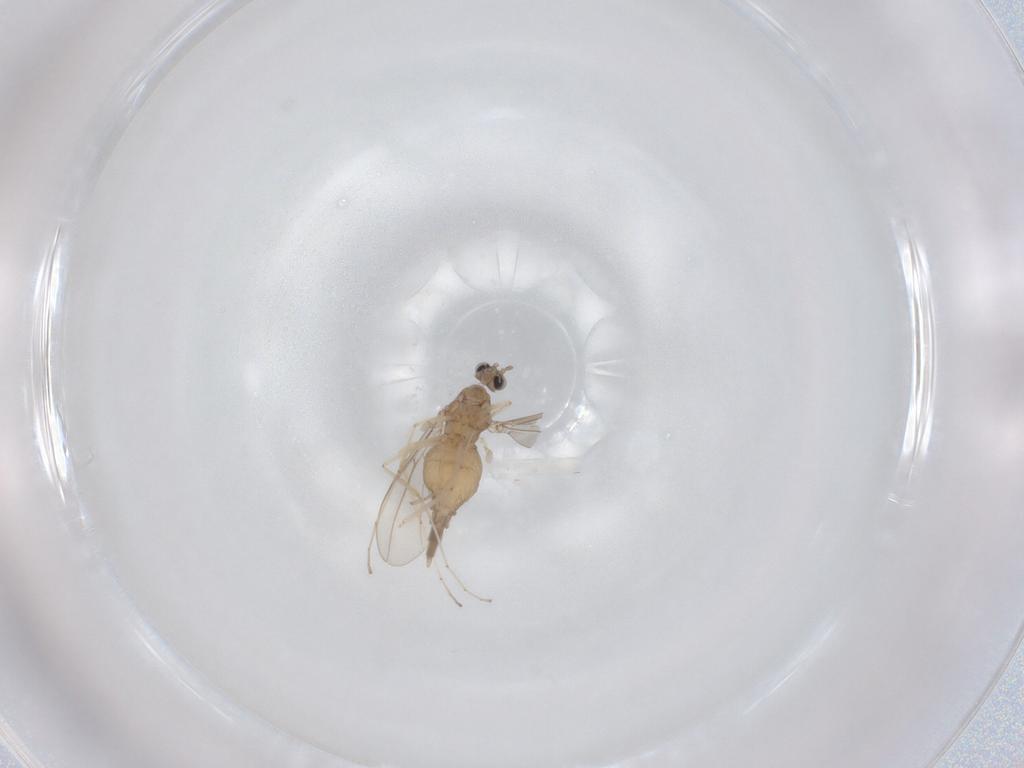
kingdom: Animalia
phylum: Arthropoda
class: Insecta
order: Diptera
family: Cecidomyiidae
